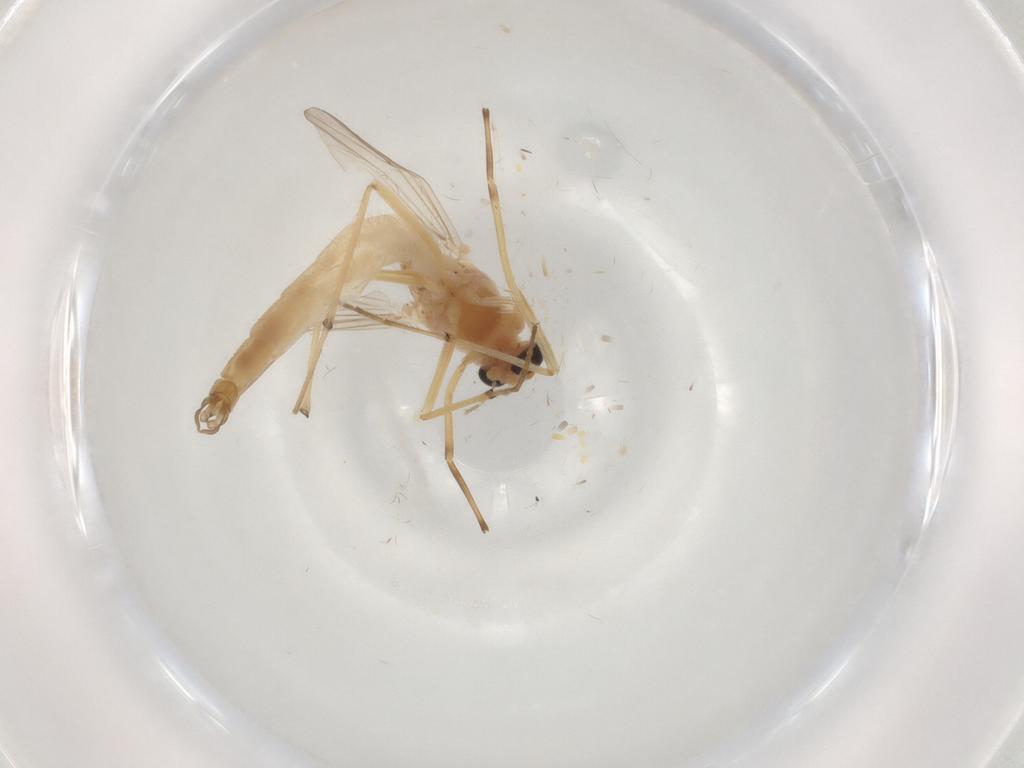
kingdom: Animalia
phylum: Arthropoda
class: Insecta
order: Diptera
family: Chironomidae
